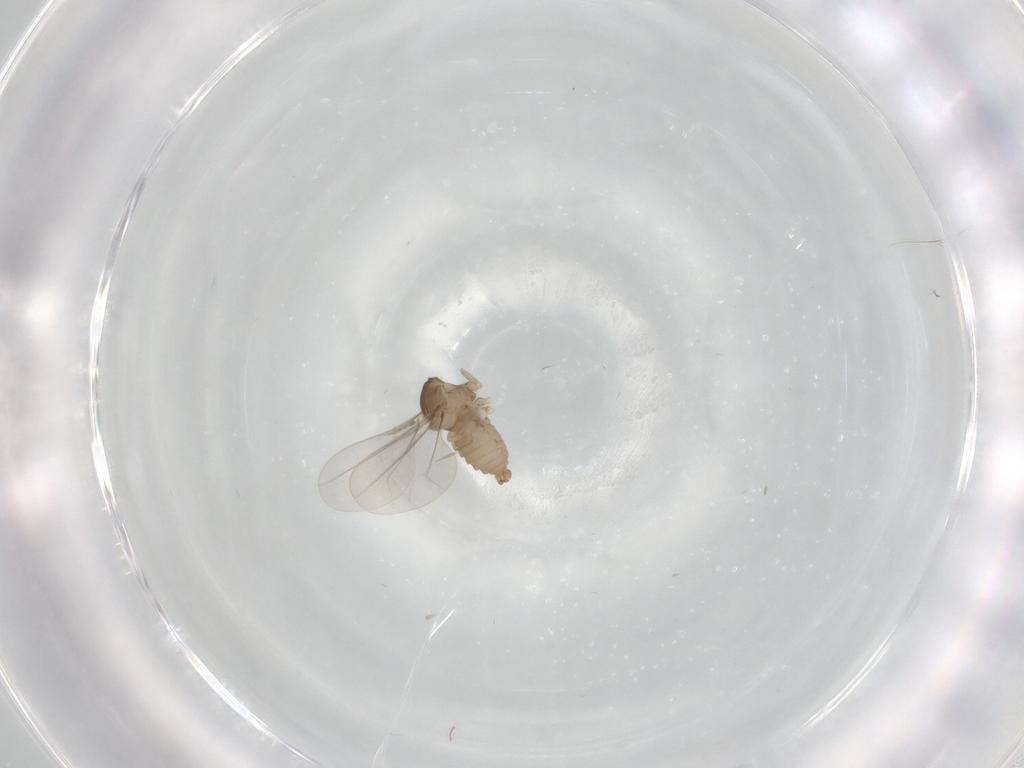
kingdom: Animalia
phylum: Arthropoda
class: Insecta
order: Diptera
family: Cecidomyiidae
